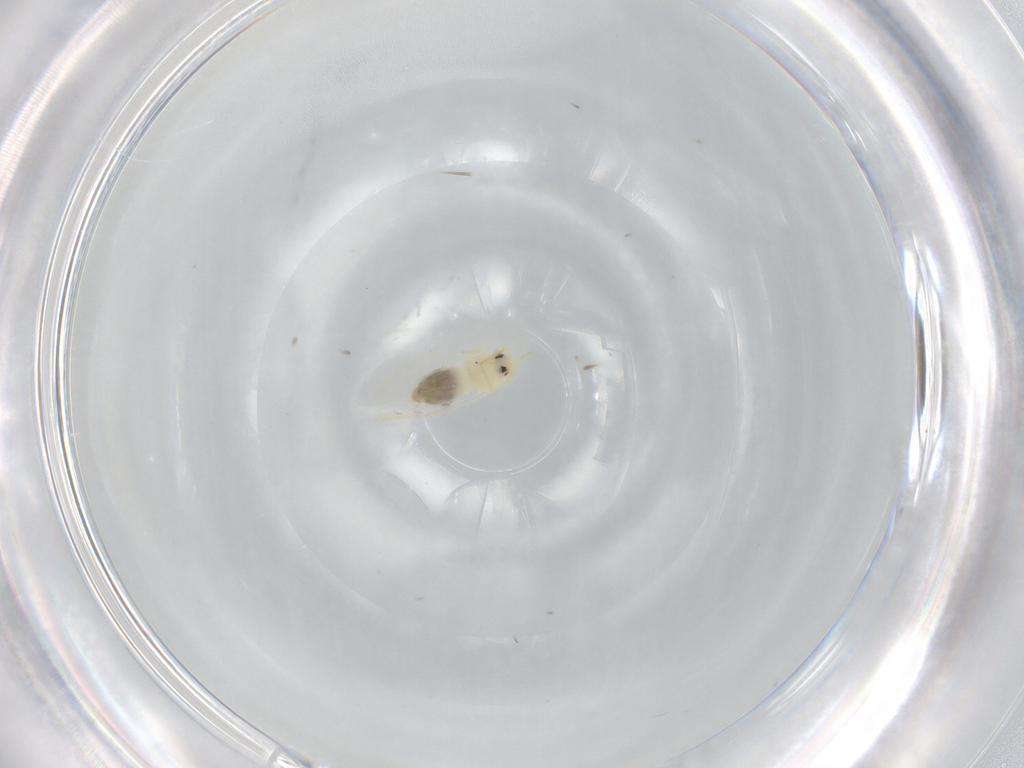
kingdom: Animalia
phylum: Arthropoda
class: Insecta
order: Hemiptera
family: Aleyrodidae
